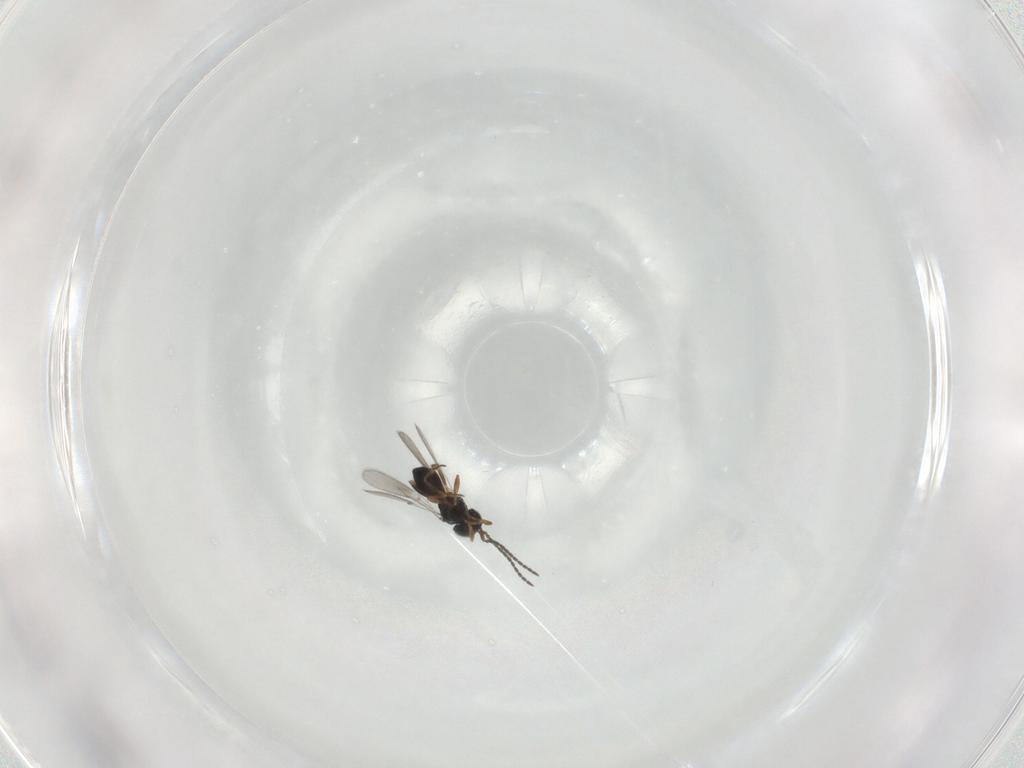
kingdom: Animalia
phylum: Arthropoda
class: Insecta
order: Hymenoptera
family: Scelionidae
